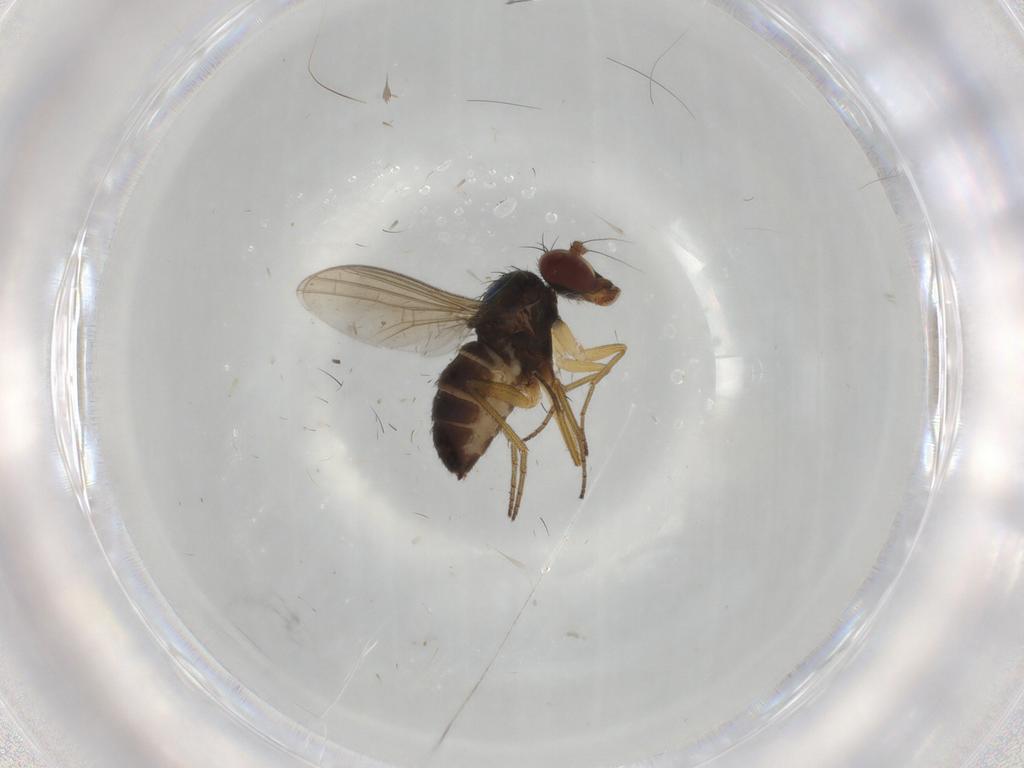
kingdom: Animalia
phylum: Arthropoda
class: Insecta
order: Diptera
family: Dolichopodidae
